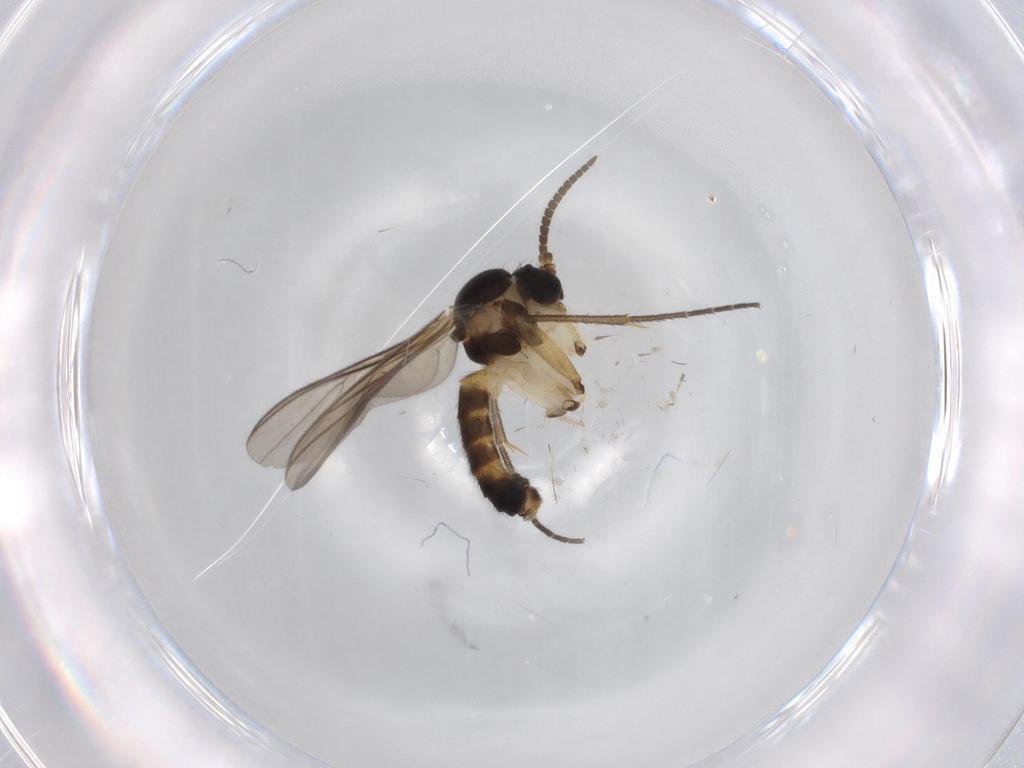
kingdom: Animalia
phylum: Arthropoda
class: Insecta
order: Diptera
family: Mycetophilidae
